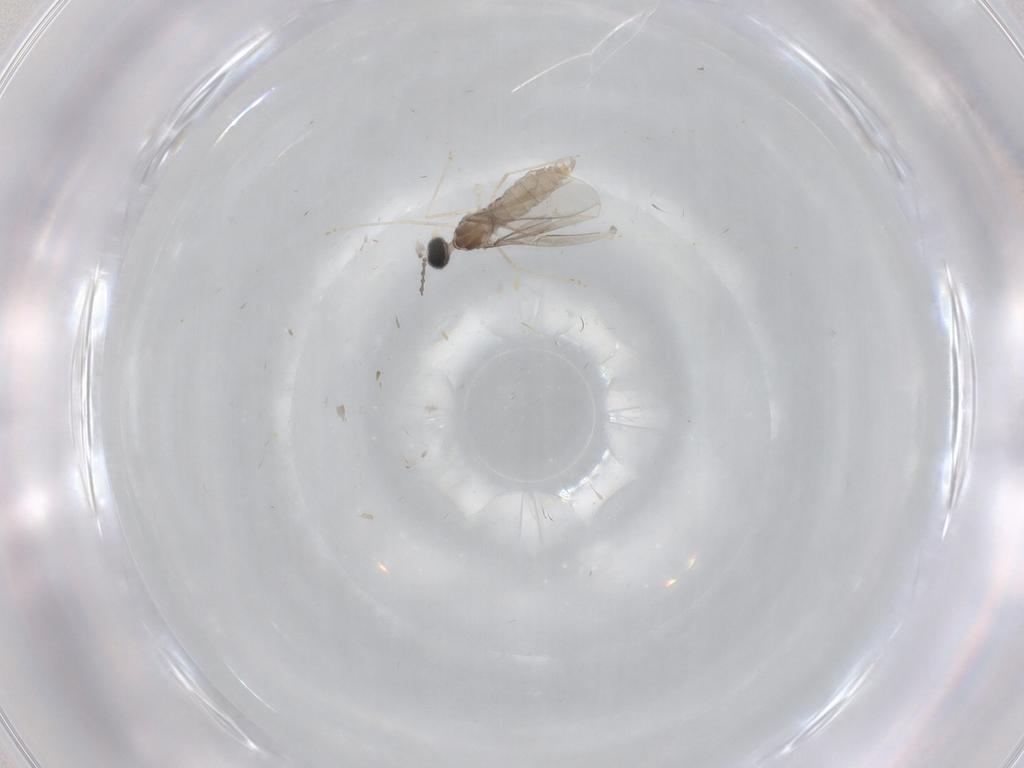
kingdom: Animalia
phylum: Arthropoda
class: Insecta
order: Diptera
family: Cecidomyiidae
